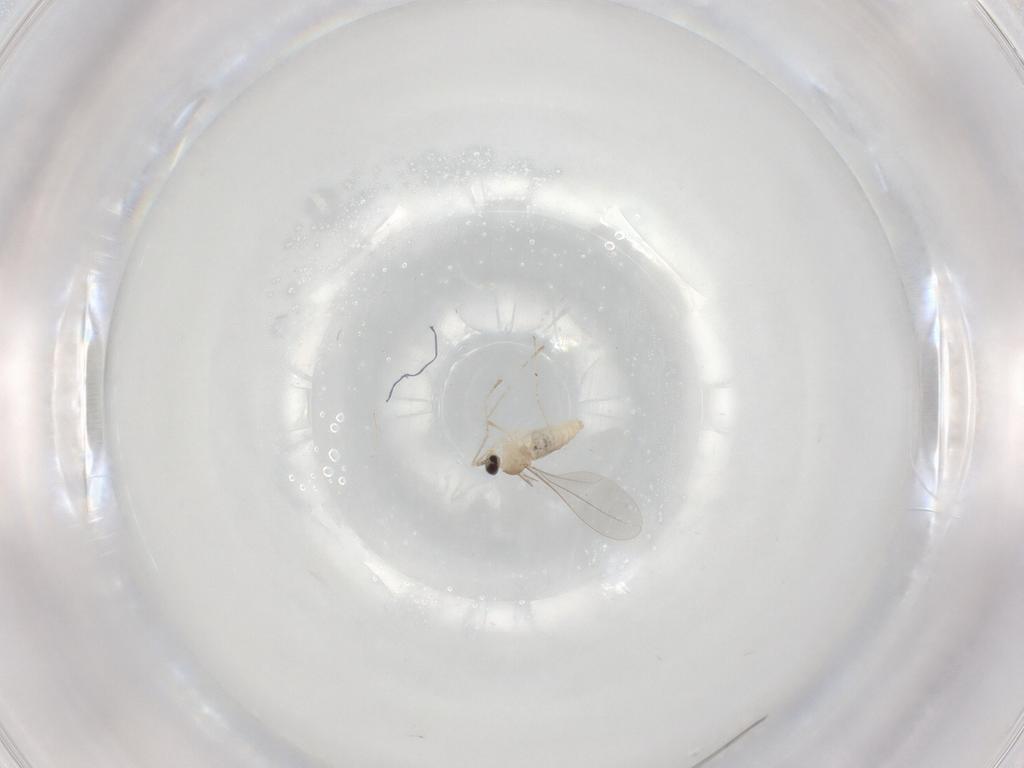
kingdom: Animalia
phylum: Arthropoda
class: Insecta
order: Diptera
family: Cecidomyiidae
